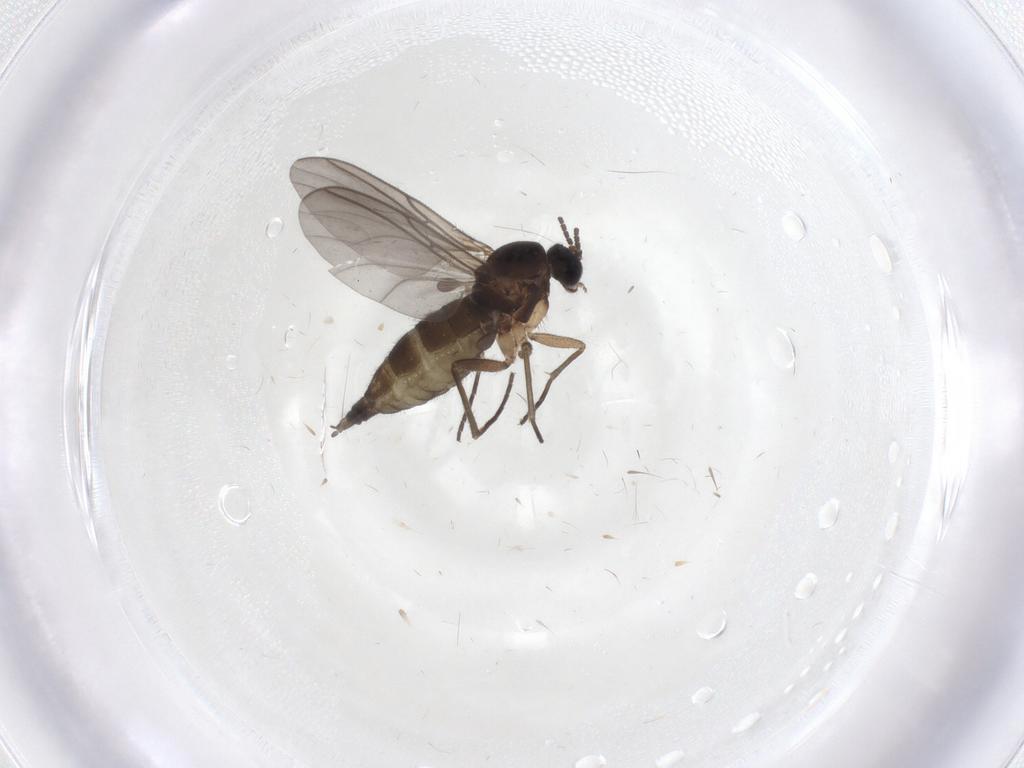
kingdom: Animalia
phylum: Arthropoda
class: Insecta
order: Diptera
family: Sciaridae
